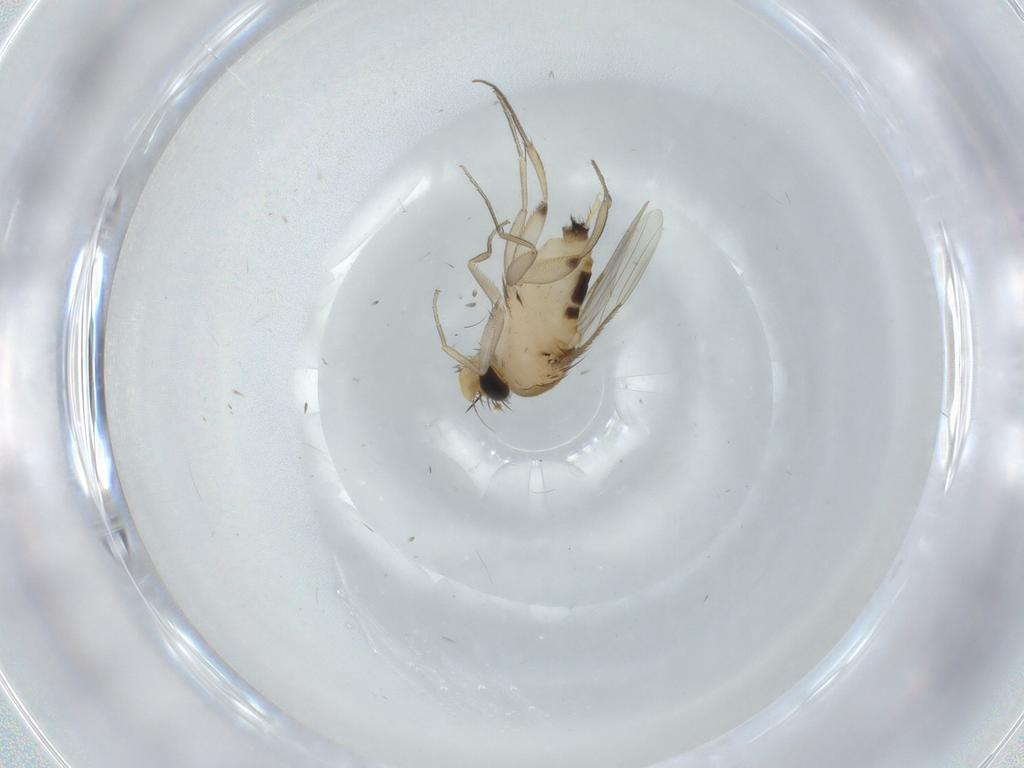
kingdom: Animalia
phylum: Arthropoda
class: Insecta
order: Diptera
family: Phoridae
